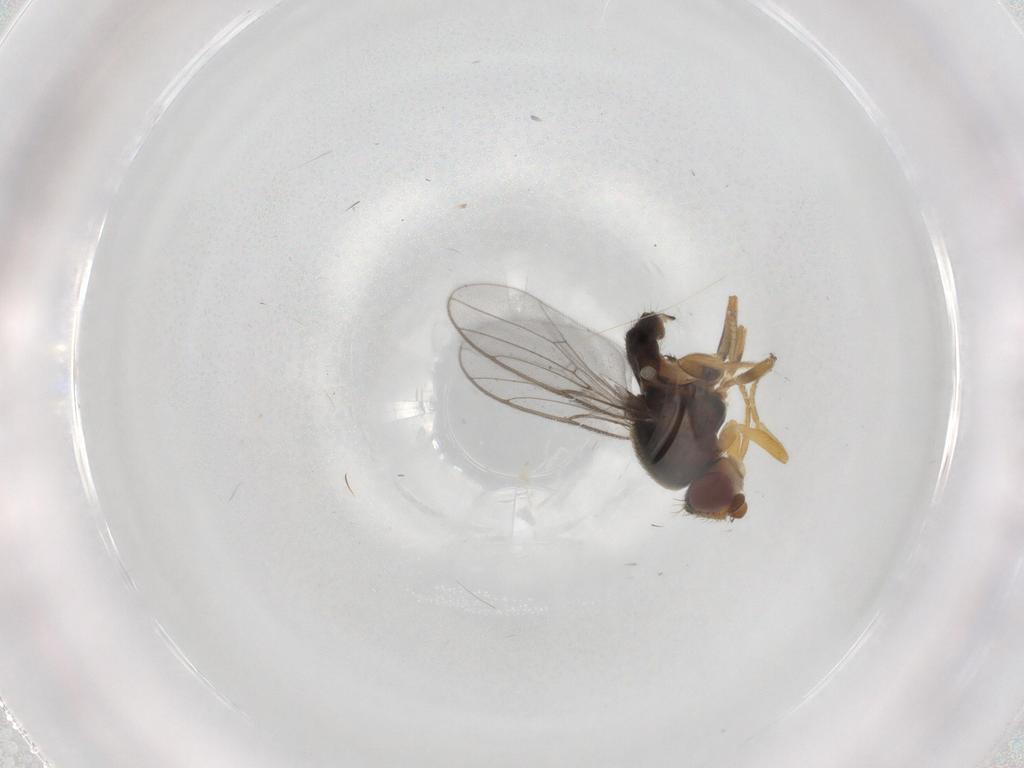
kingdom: Animalia
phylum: Arthropoda
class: Insecta
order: Diptera
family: Chloropidae
